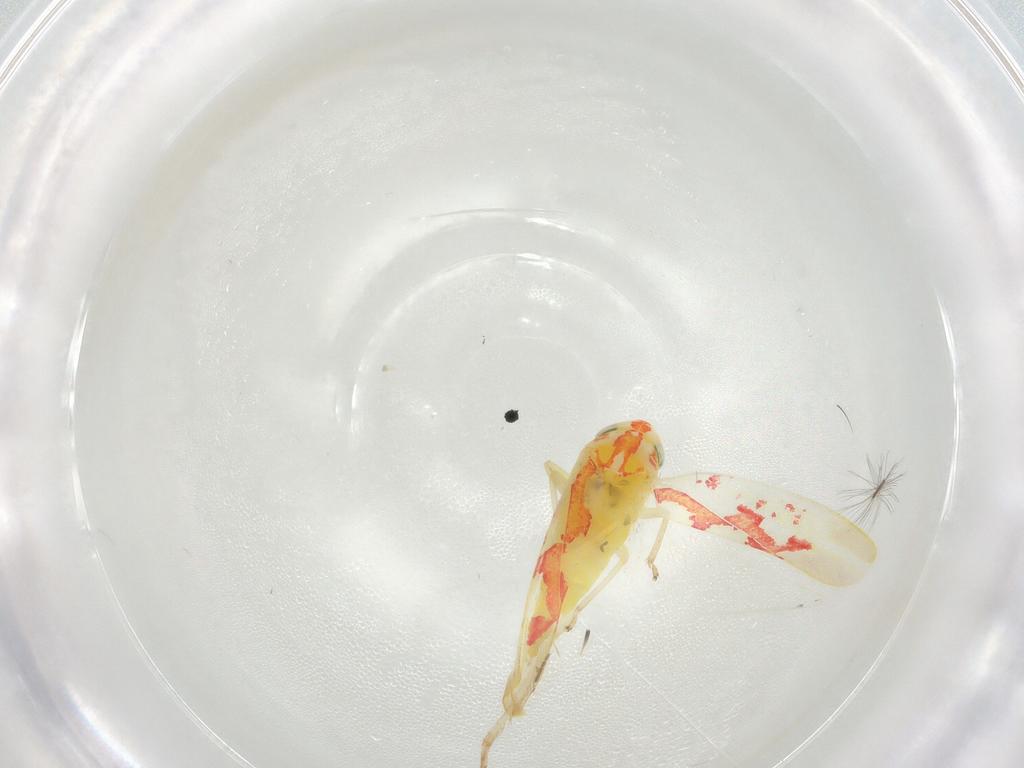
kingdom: Animalia
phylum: Arthropoda
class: Insecta
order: Hemiptera
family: Cicadellidae
